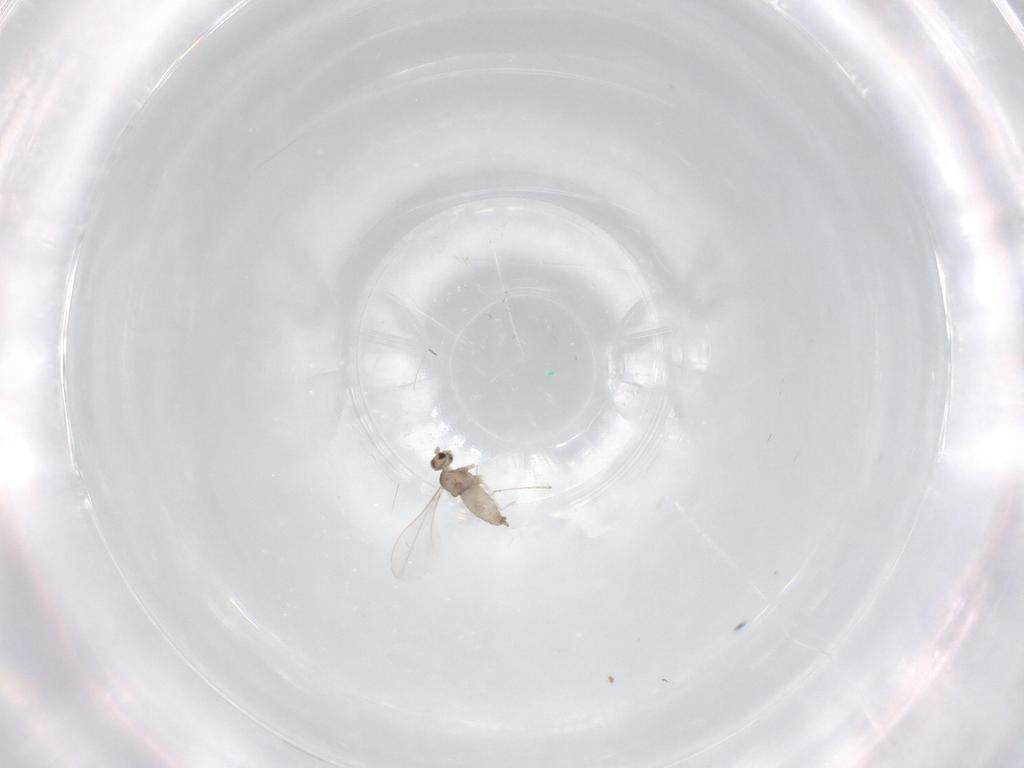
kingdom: Animalia
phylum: Arthropoda
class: Insecta
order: Diptera
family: Cecidomyiidae
